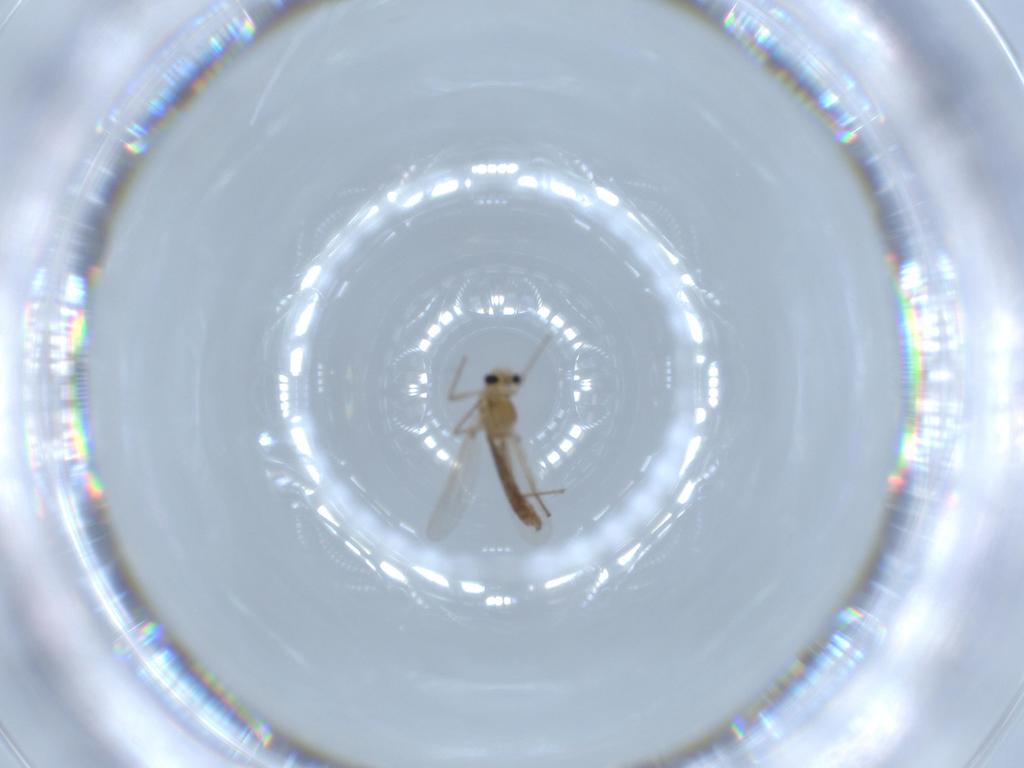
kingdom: Animalia
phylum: Arthropoda
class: Insecta
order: Diptera
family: Chironomidae
